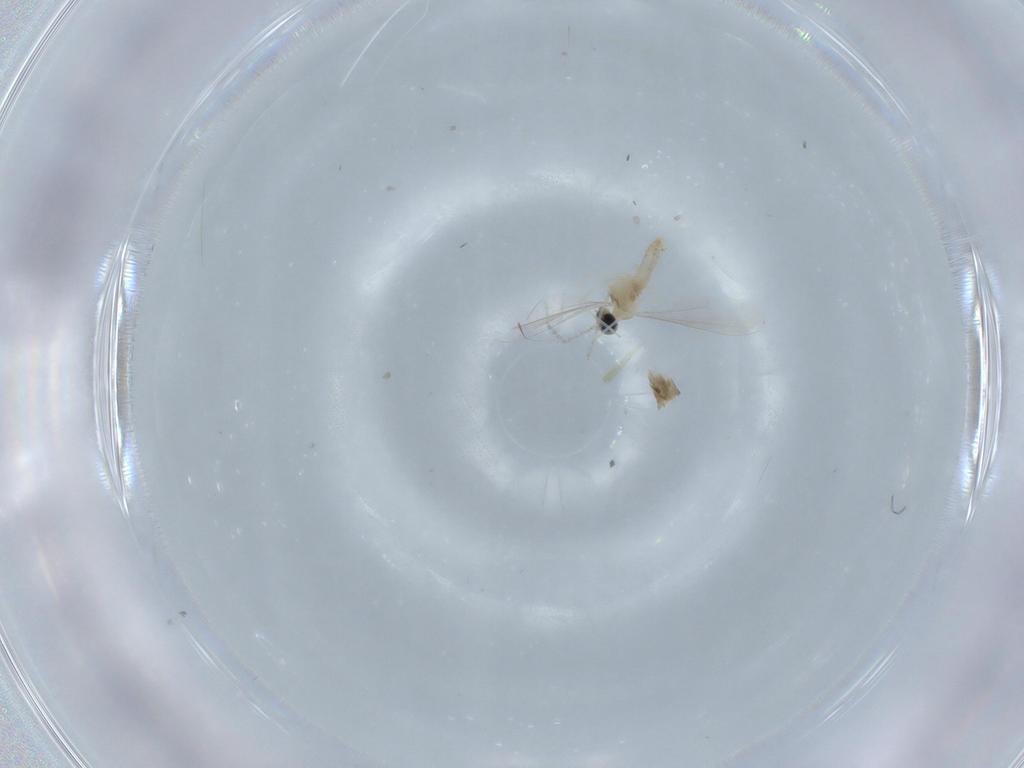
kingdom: Animalia
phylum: Arthropoda
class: Insecta
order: Diptera
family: Cecidomyiidae
